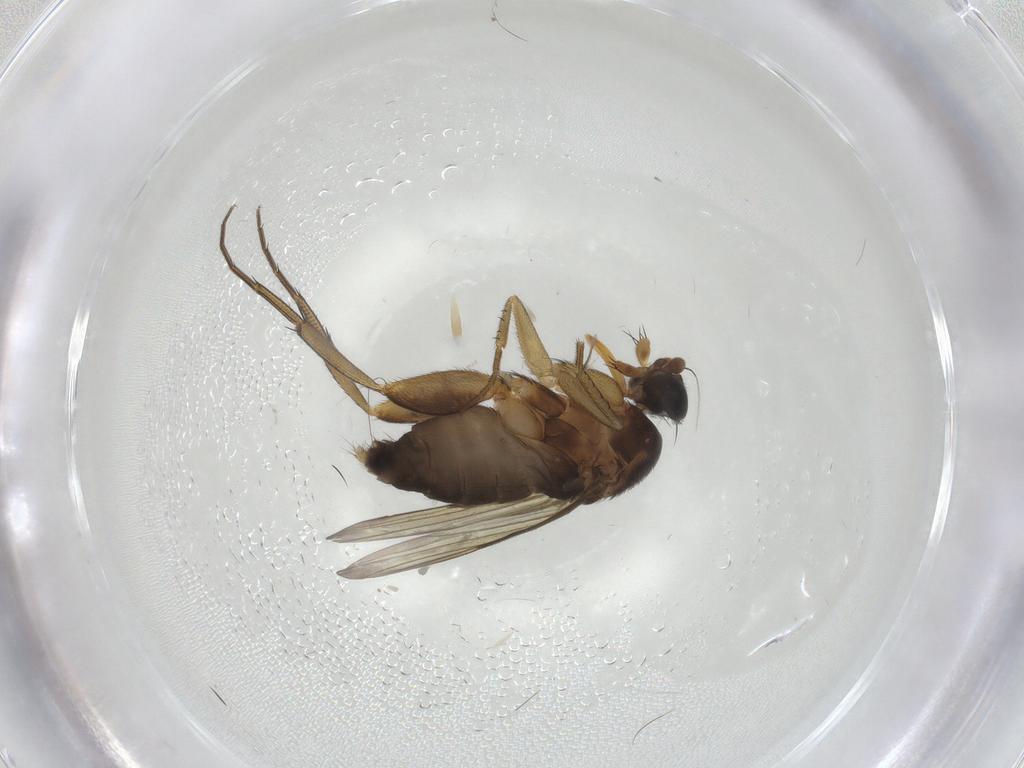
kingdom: Animalia
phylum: Arthropoda
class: Insecta
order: Diptera
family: Phoridae
